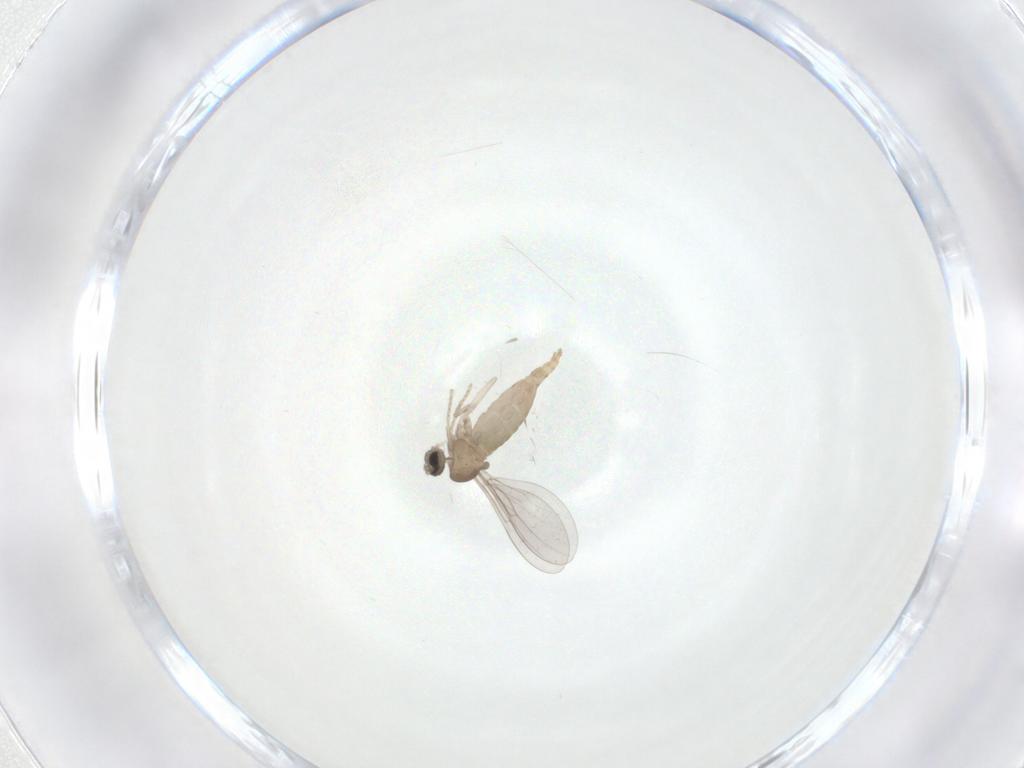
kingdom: Animalia
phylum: Arthropoda
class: Insecta
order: Diptera
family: Cecidomyiidae
